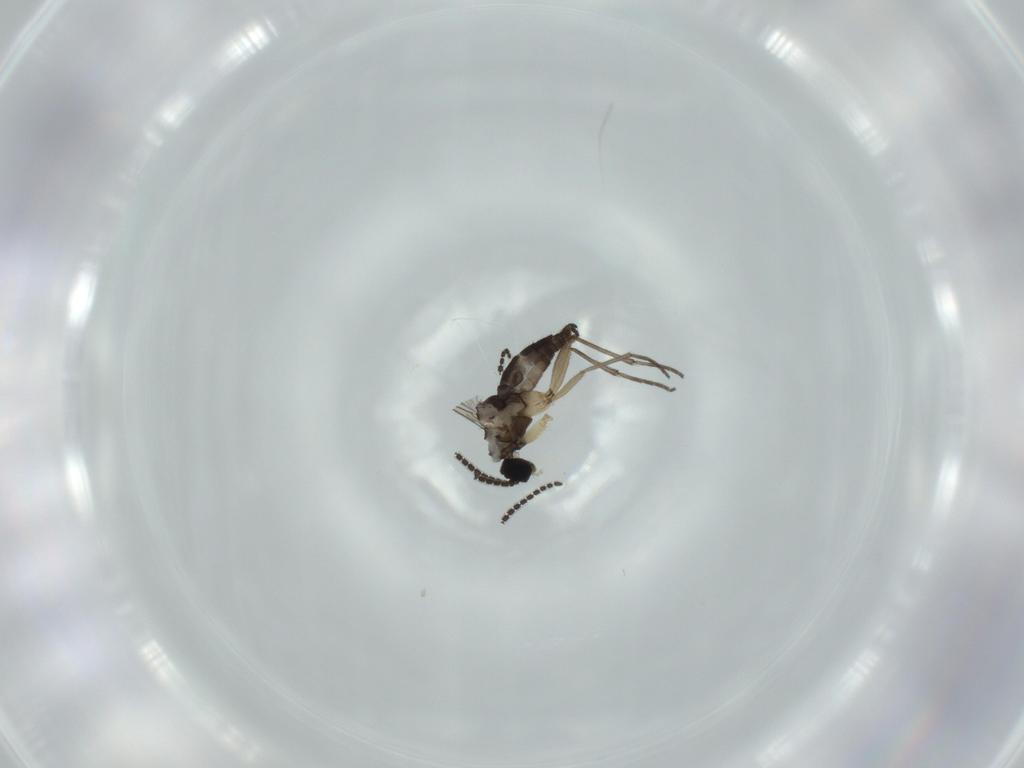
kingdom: Animalia
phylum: Arthropoda
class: Insecta
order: Diptera
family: Sciaridae
